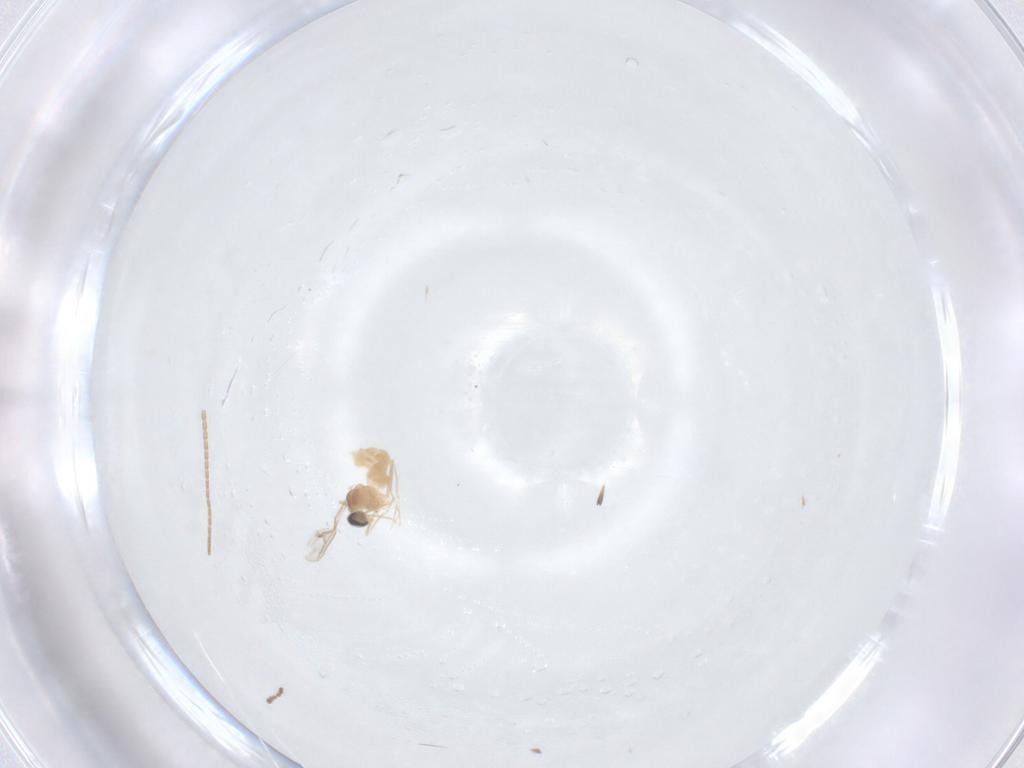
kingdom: Animalia
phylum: Arthropoda
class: Insecta
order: Diptera
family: Cecidomyiidae
